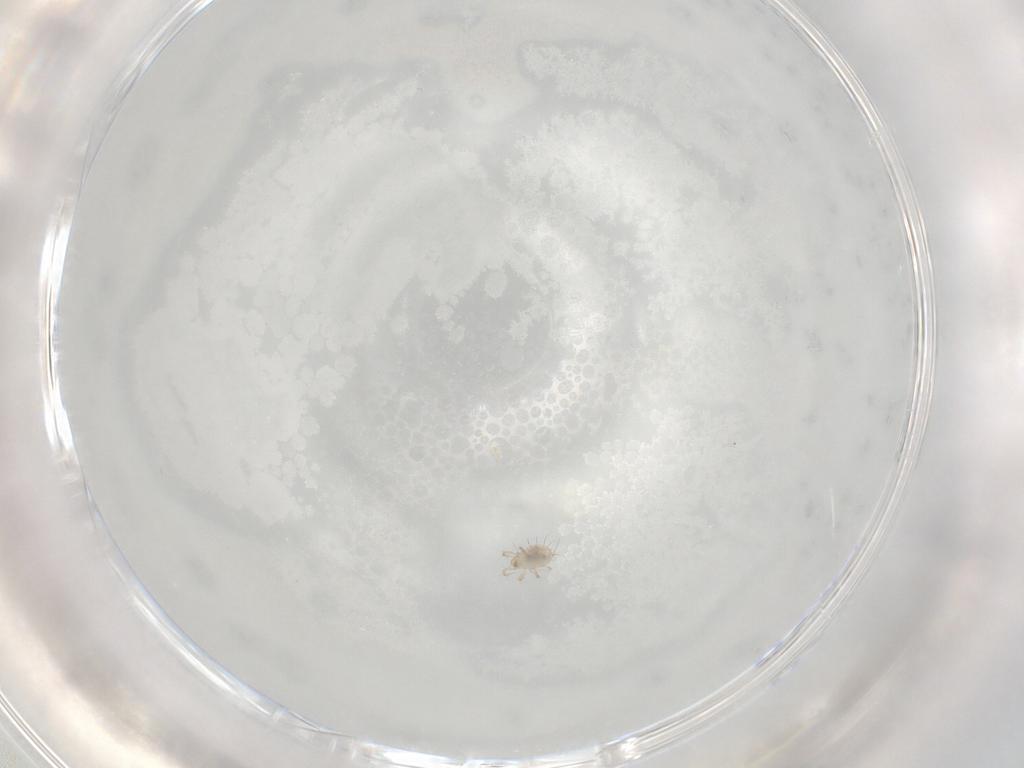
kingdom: Animalia
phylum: Arthropoda
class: Arachnida
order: Sarcoptiformes
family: Damaeidae
